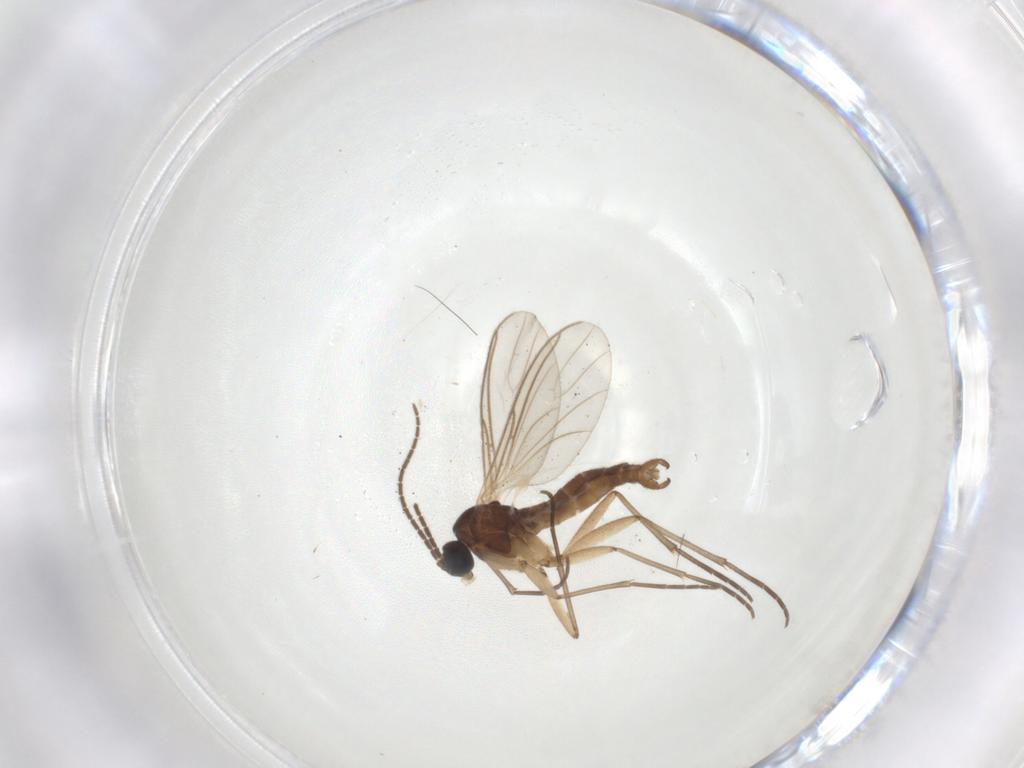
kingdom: Animalia
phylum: Arthropoda
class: Insecta
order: Diptera
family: Sciaridae
